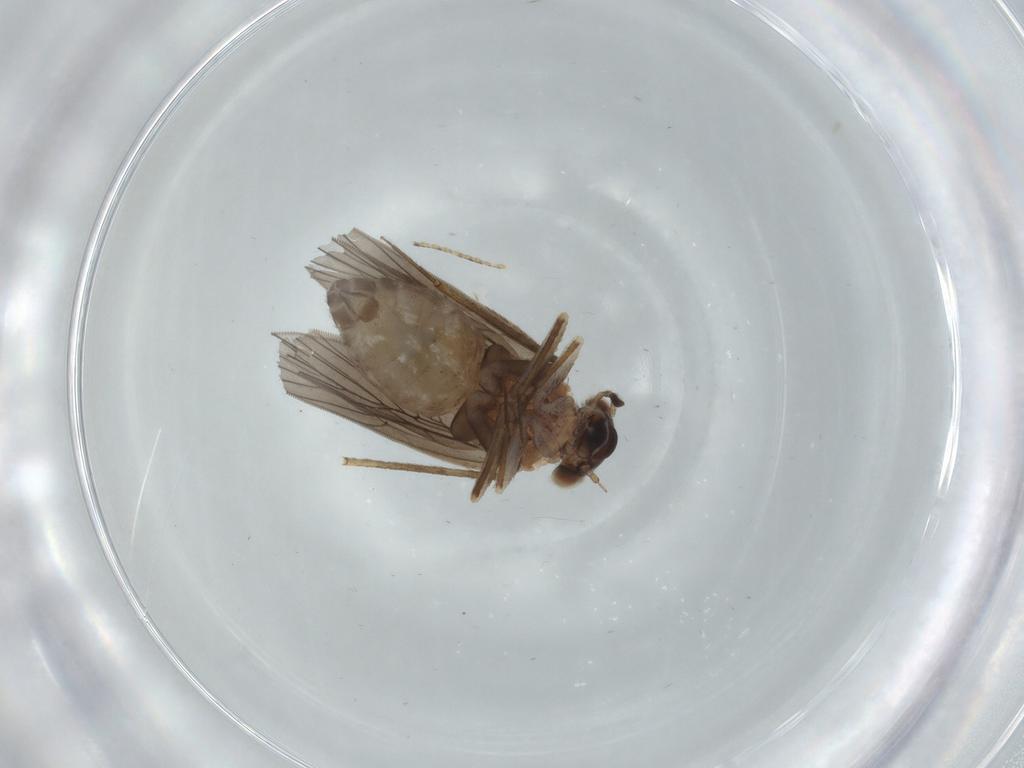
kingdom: Animalia
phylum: Arthropoda
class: Insecta
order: Psocodea
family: Lepidopsocidae
